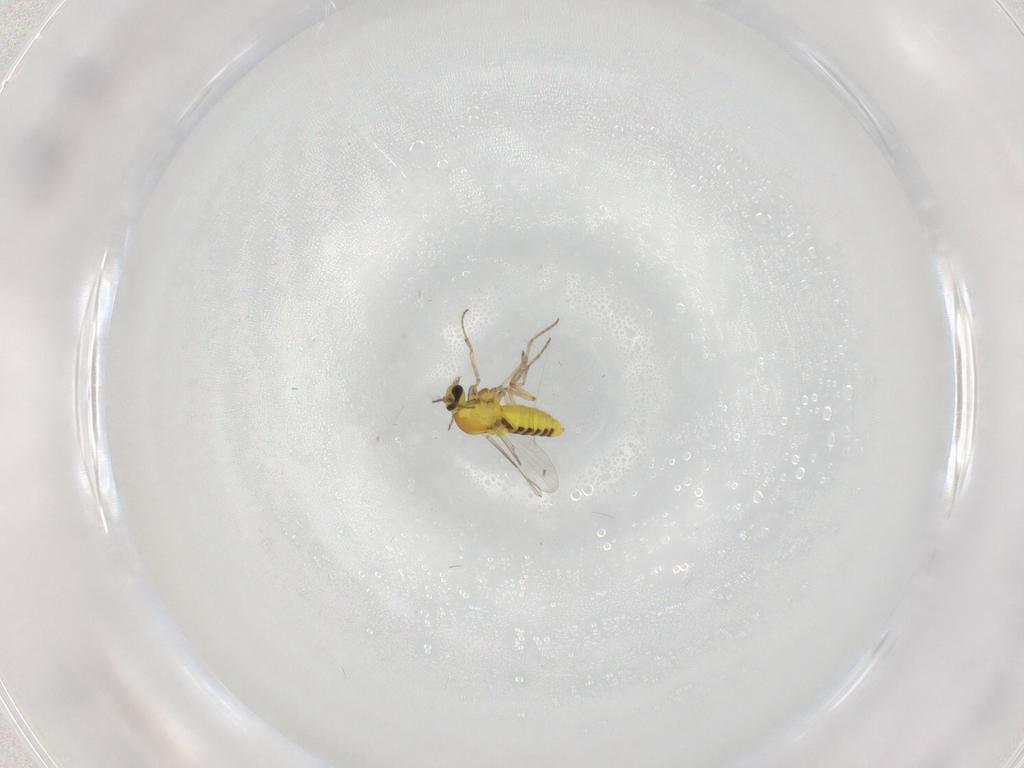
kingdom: Animalia
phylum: Arthropoda
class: Insecta
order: Diptera
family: Ceratopogonidae
